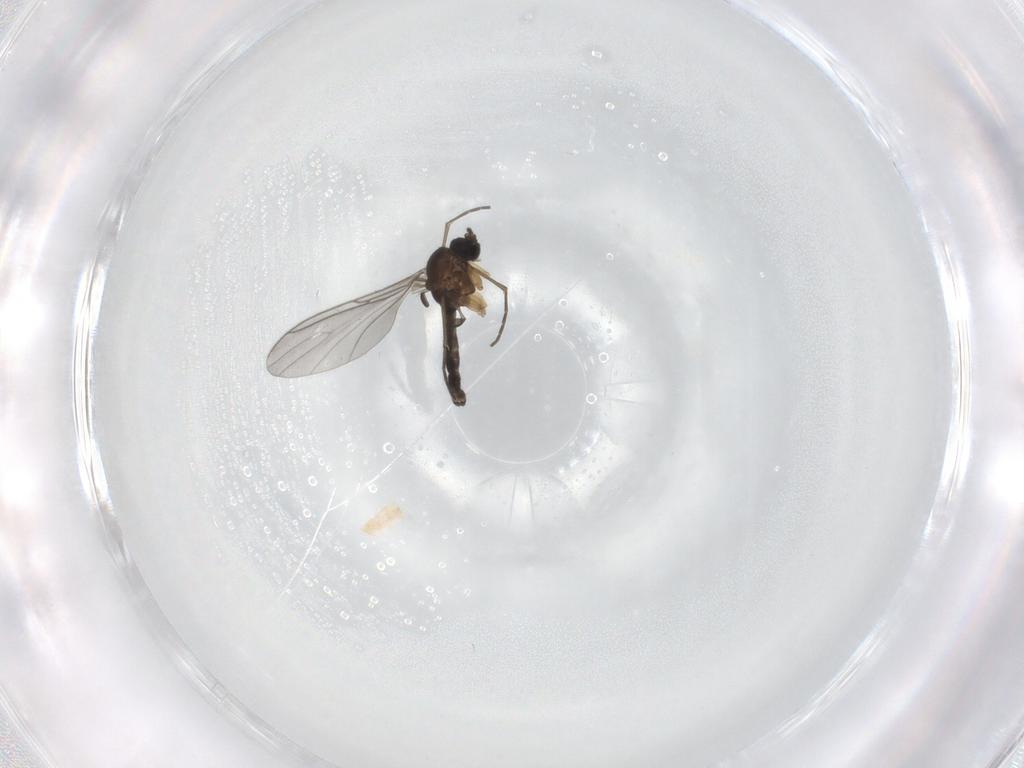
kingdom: Animalia
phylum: Arthropoda
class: Insecta
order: Diptera
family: Sciaridae
